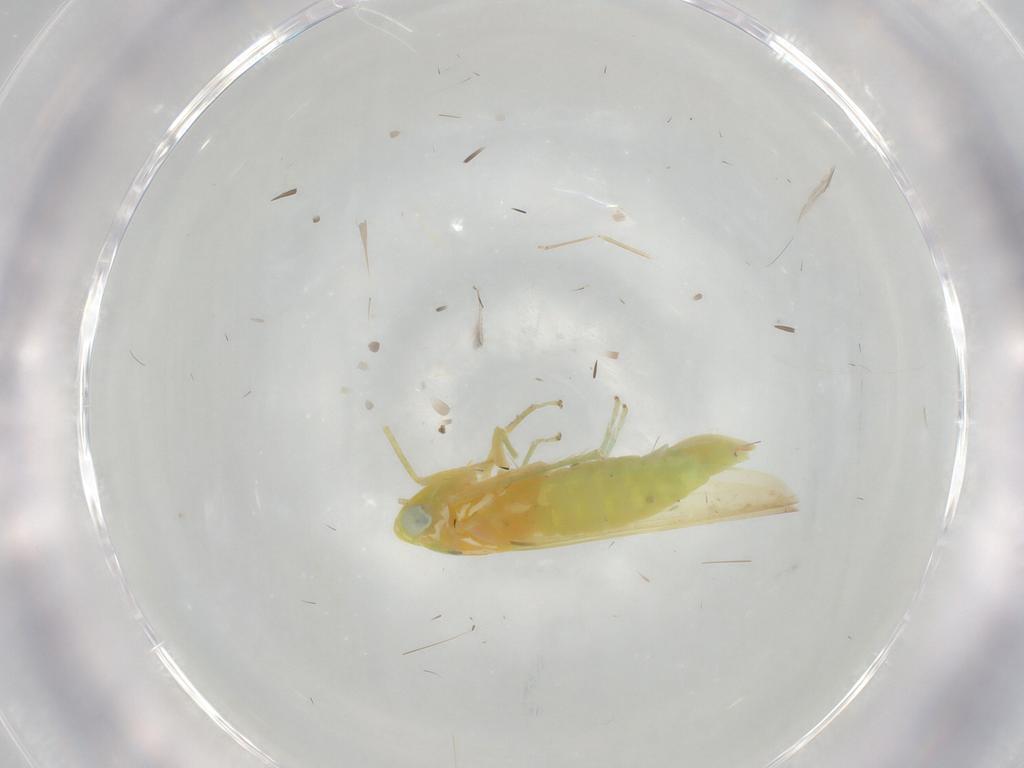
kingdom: Animalia
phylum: Arthropoda
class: Insecta
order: Hemiptera
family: Cicadellidae
